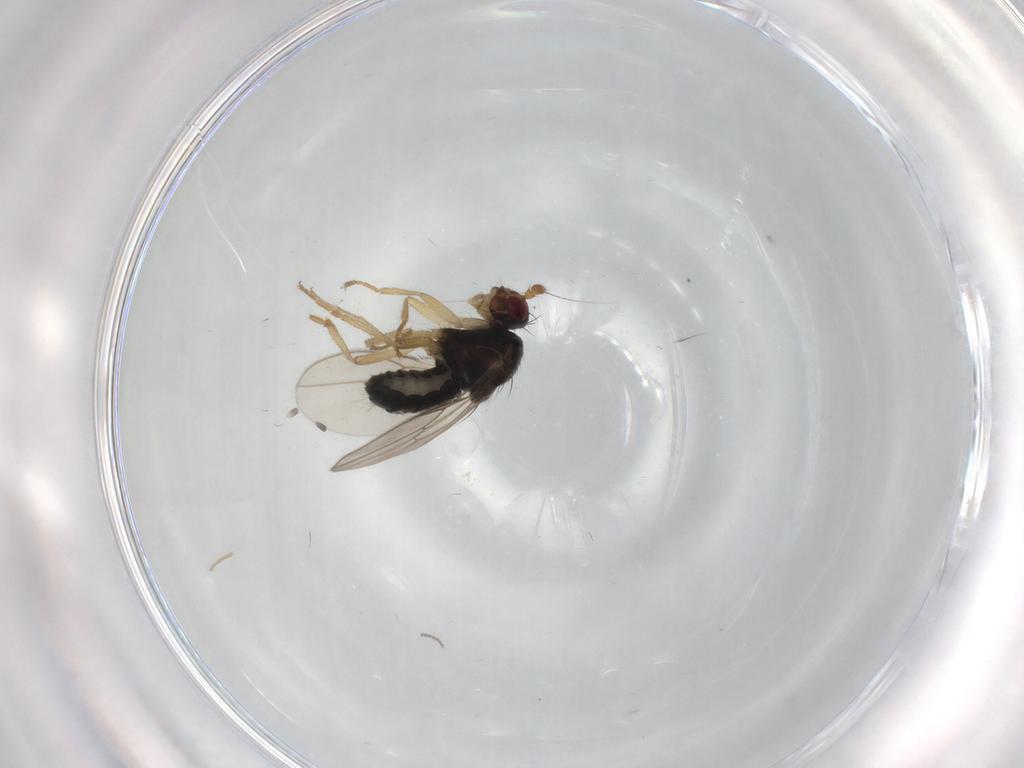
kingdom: Animalia
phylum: Arthropoda
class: Insecta
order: Diptera
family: Sphaeroceridae
